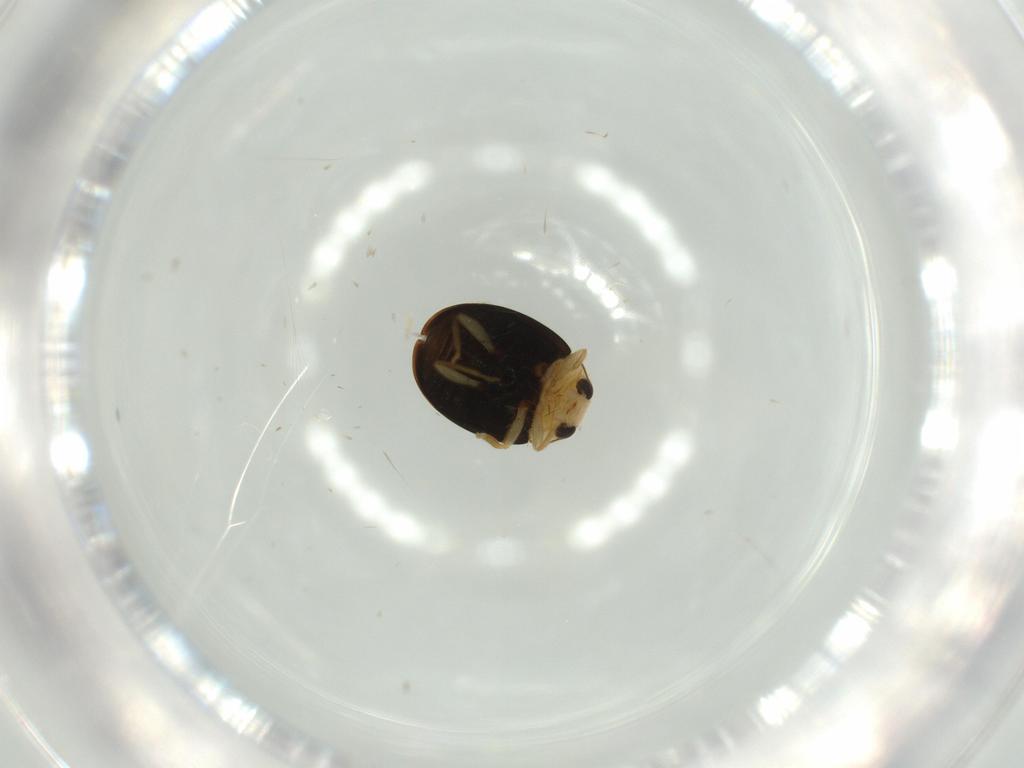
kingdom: Animalia
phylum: Arthropoda
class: Insecta
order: Coleoptera
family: Coccinellidae
